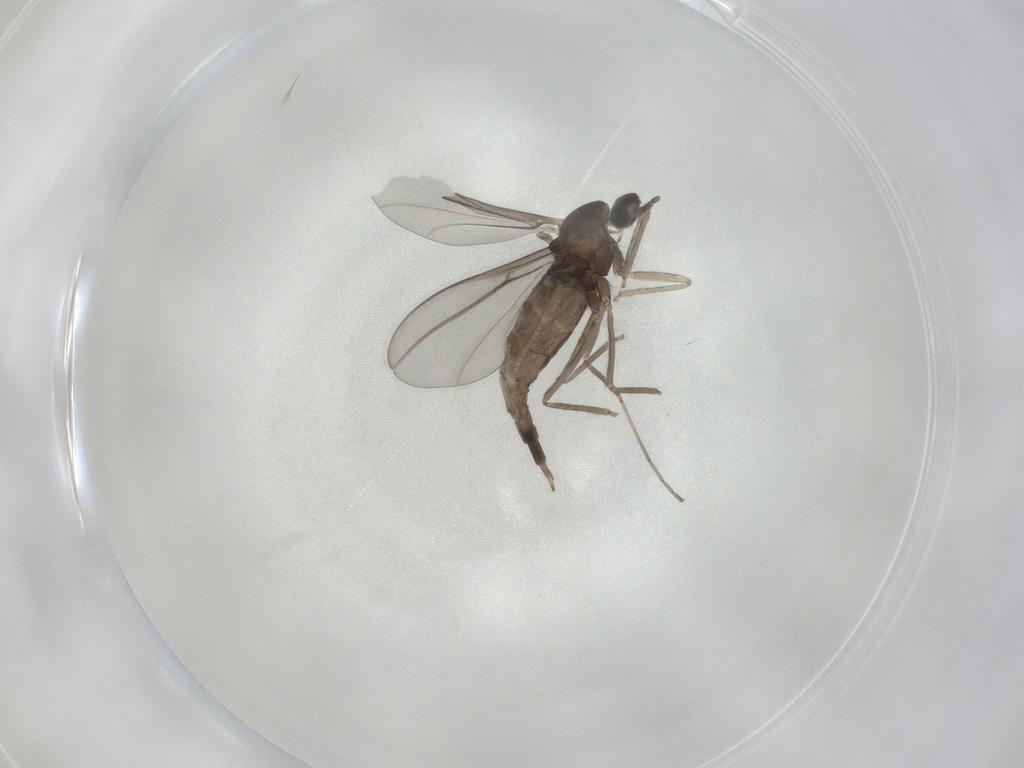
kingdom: Animalia
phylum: Arthropoda
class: Insecta
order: Diptera
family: Cecidomyiidae
